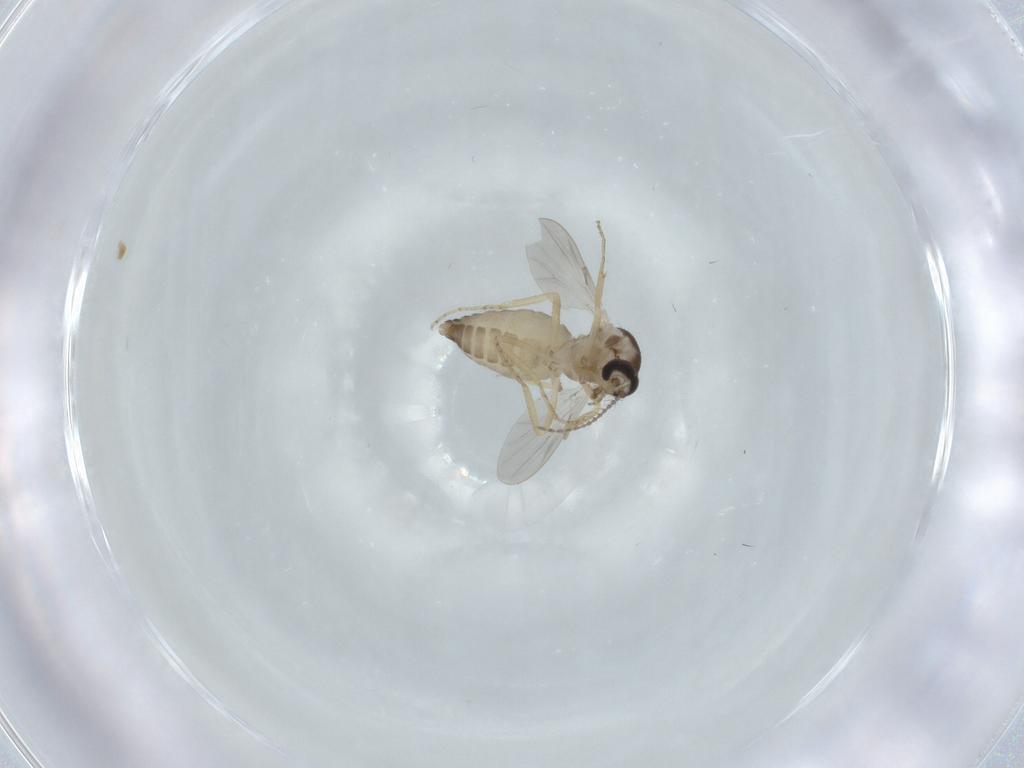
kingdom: Animalia
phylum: Arthropoda
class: Insecta
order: Diptera
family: Ceratopogonidae
